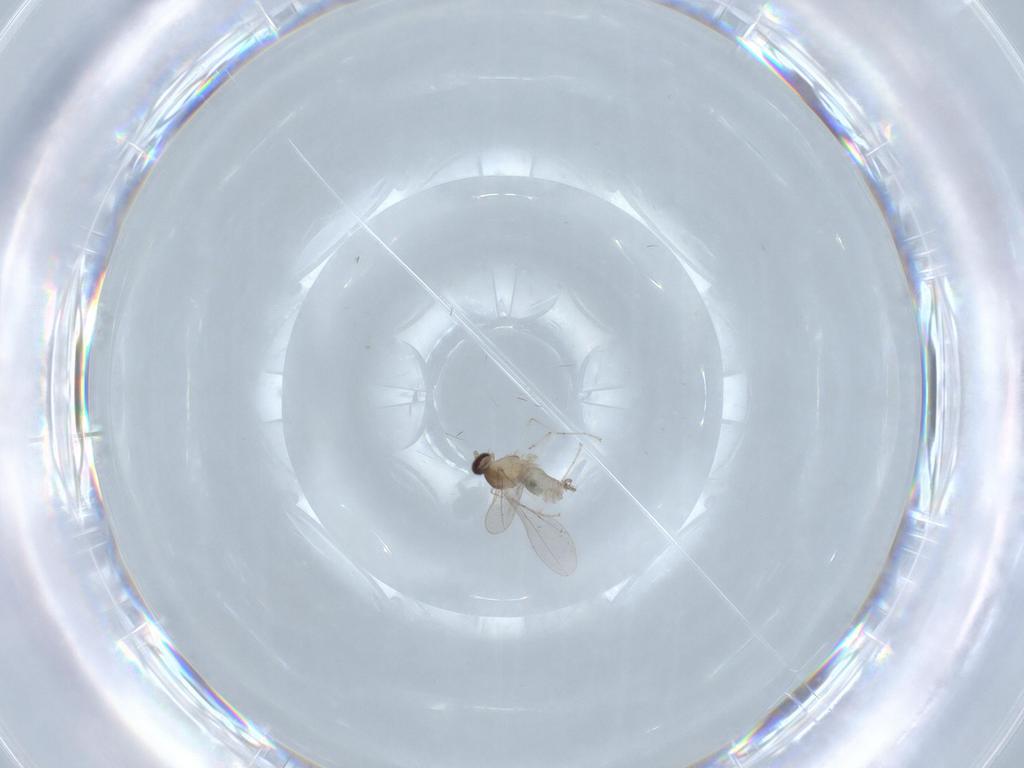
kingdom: Animalia
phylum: Arthropoda
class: Insecta
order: Diptera
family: Cecidomyiidae
